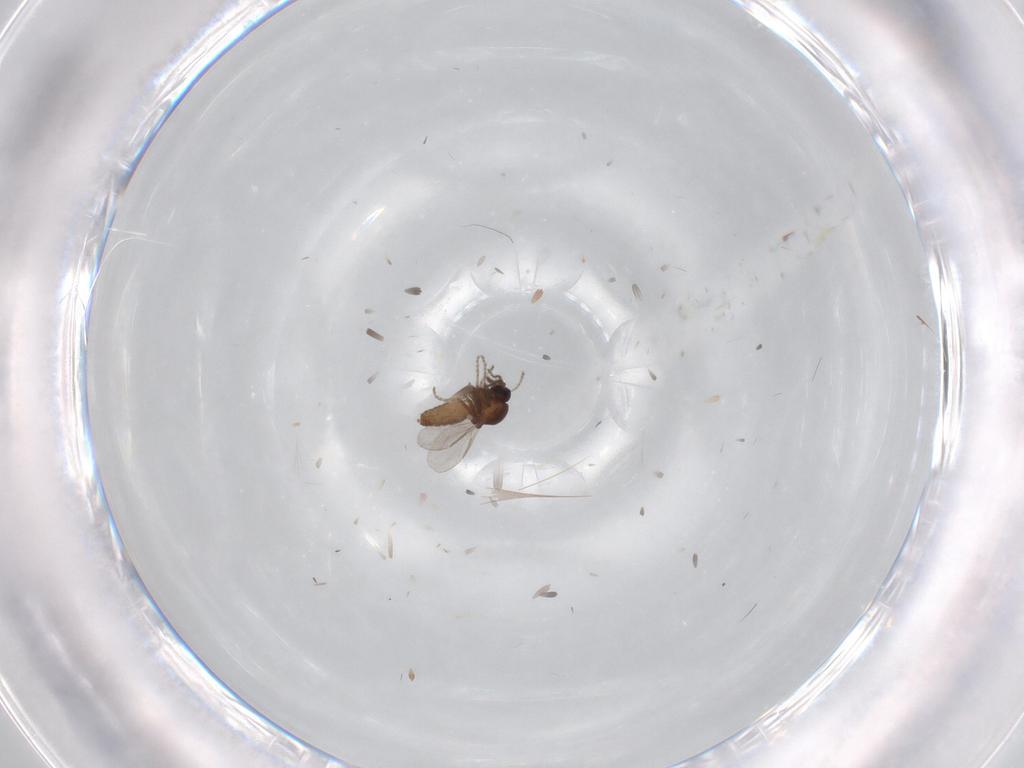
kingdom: Animalia
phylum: Arthropoda
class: Insecta
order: Diptera
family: Ceratopogonidae
